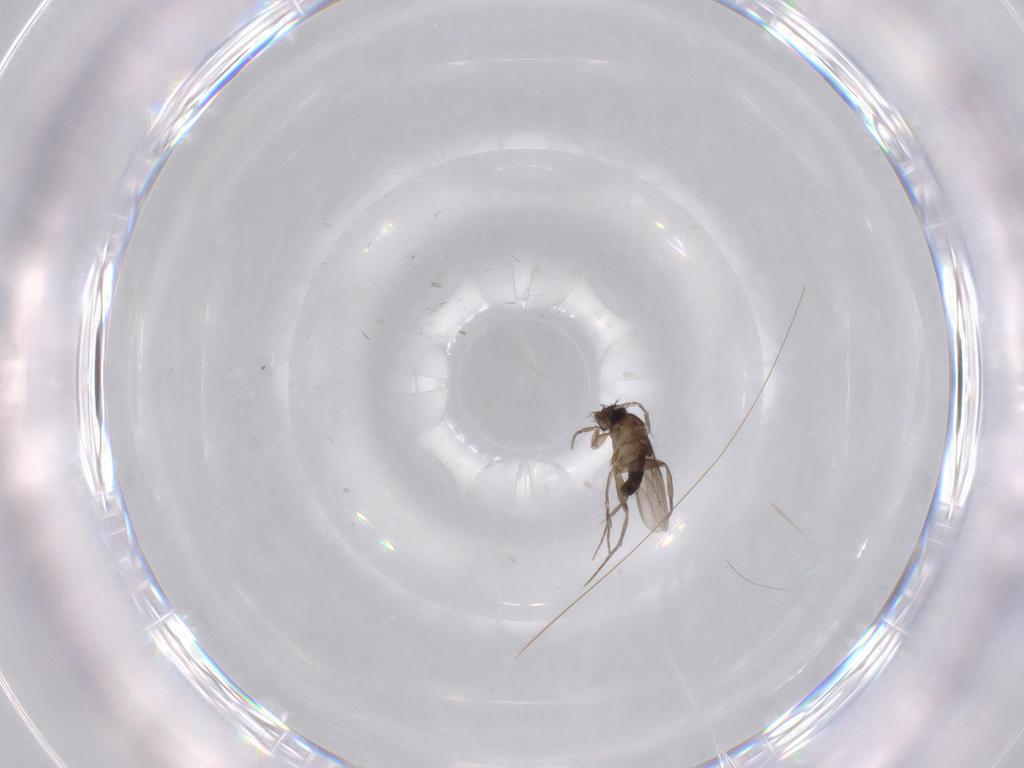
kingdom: Animalia
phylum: Arthropoda
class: Insecta
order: Diptera
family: Phoridae
